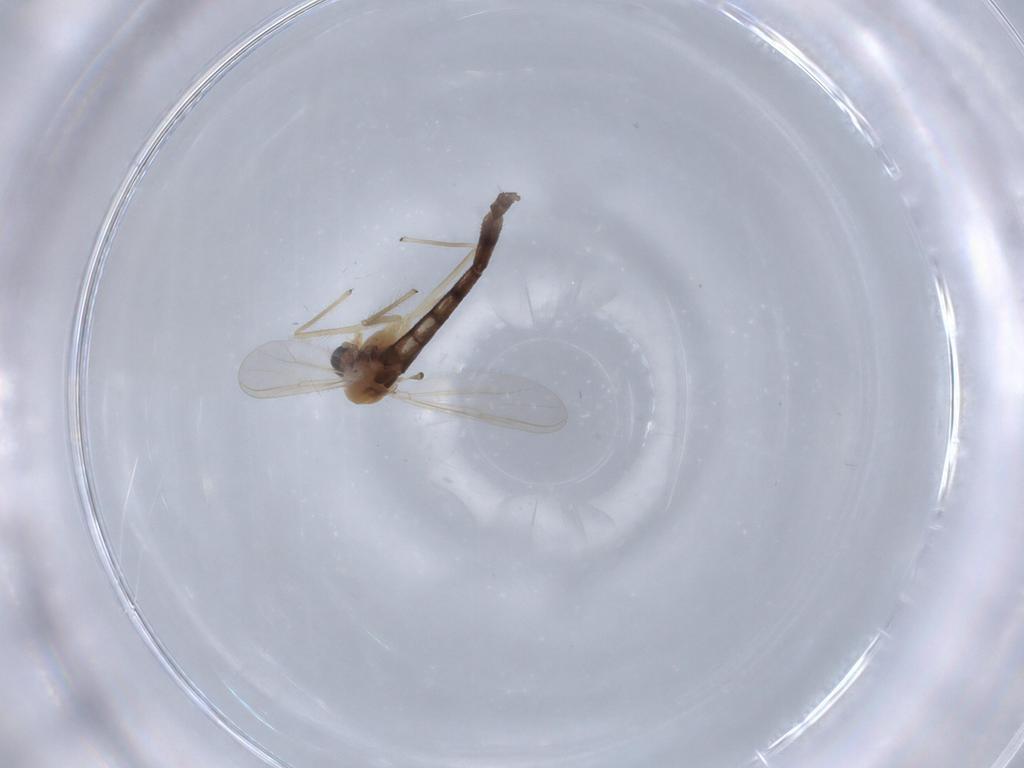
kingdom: Animalia
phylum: Arthropoda
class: Insecta
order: Diptera
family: Chironomidae
